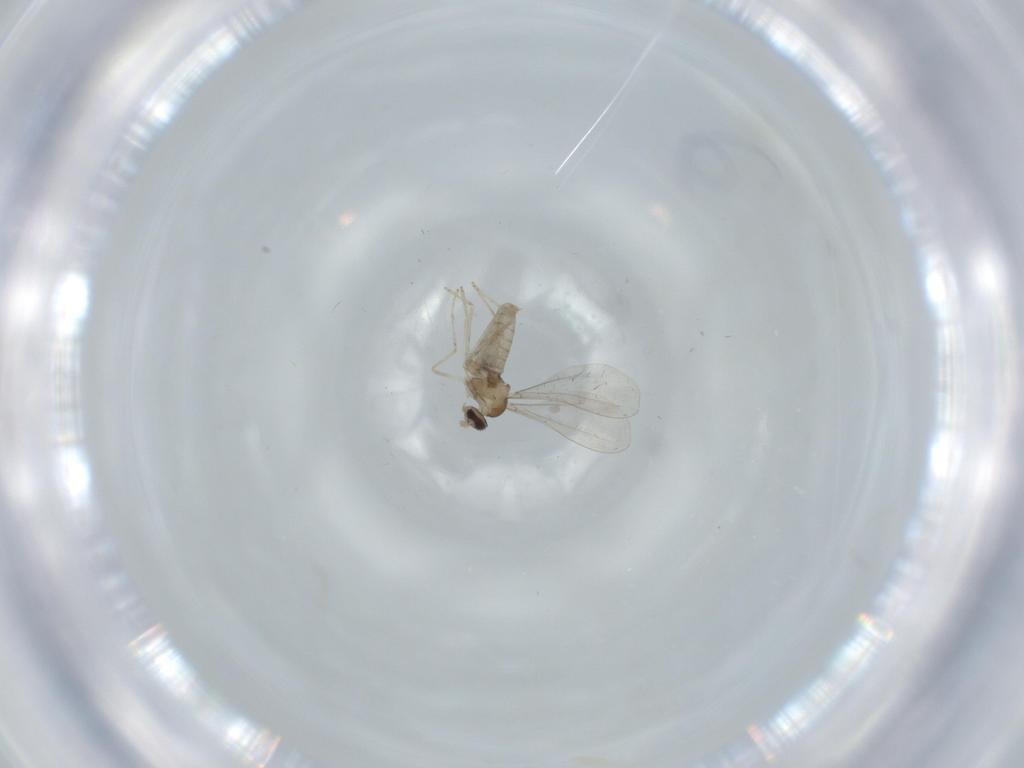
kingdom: Animalia
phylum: Arthropoda
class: Insecta
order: Diptera
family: Cecidomyiidae
